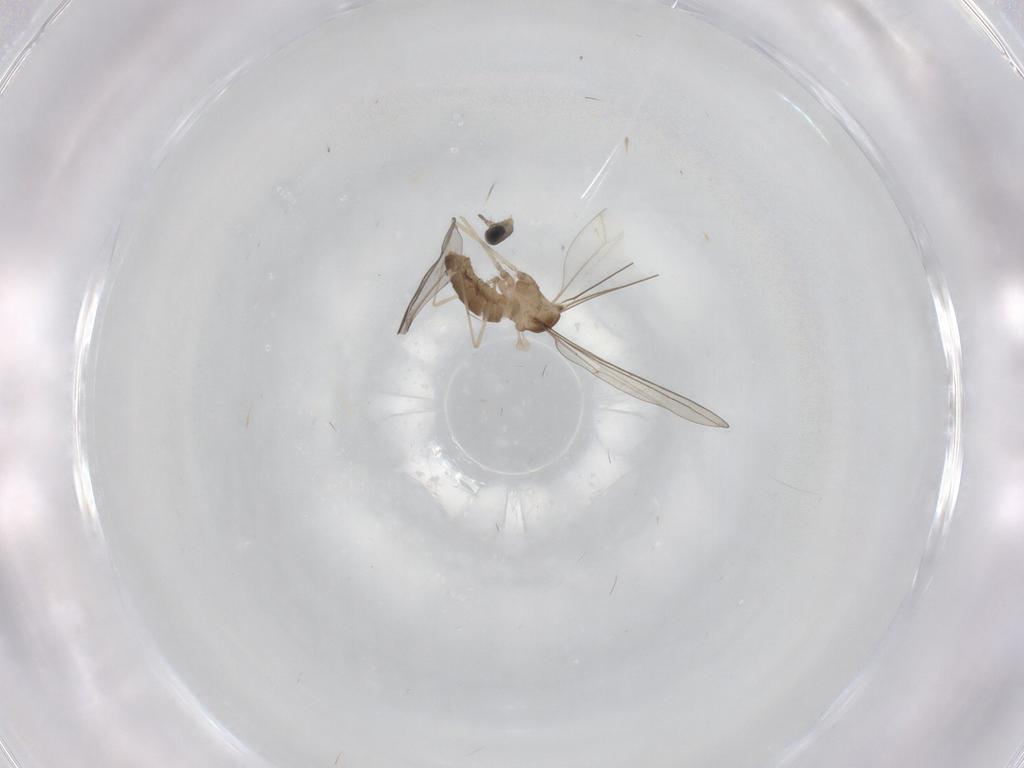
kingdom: Animalia
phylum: Arthropoda
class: Insecta
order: Diptera
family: Cecidomyiidae
